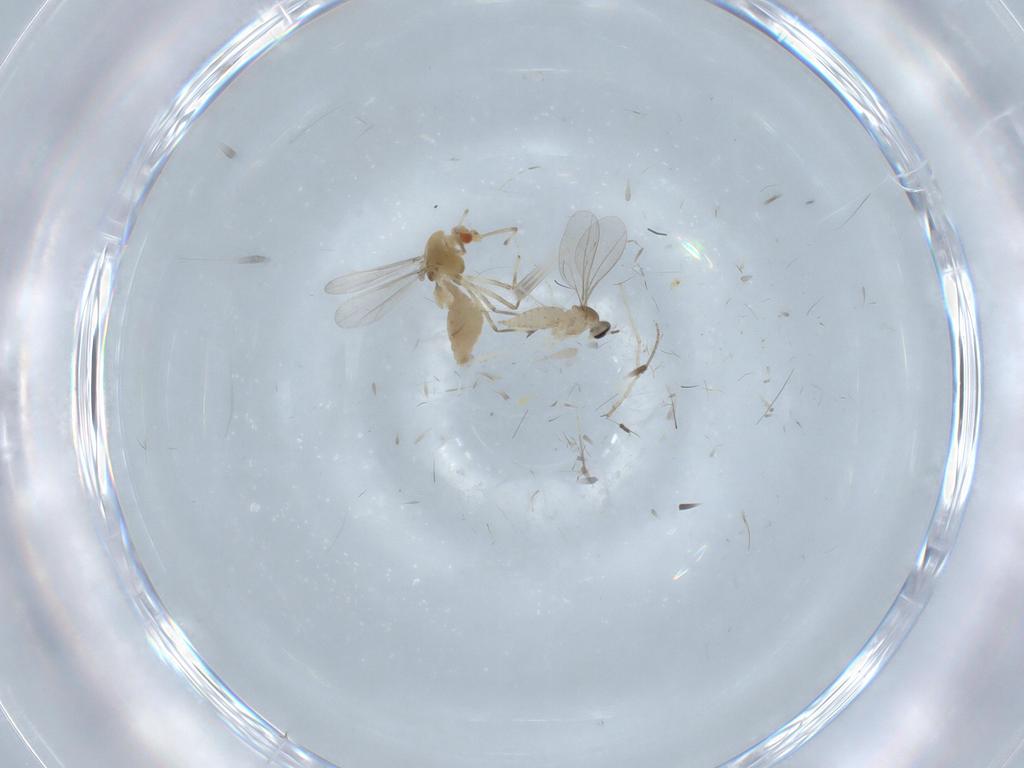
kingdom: Animalia
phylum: Arthropoda
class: Insecta
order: Diptera
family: Chironomidae
